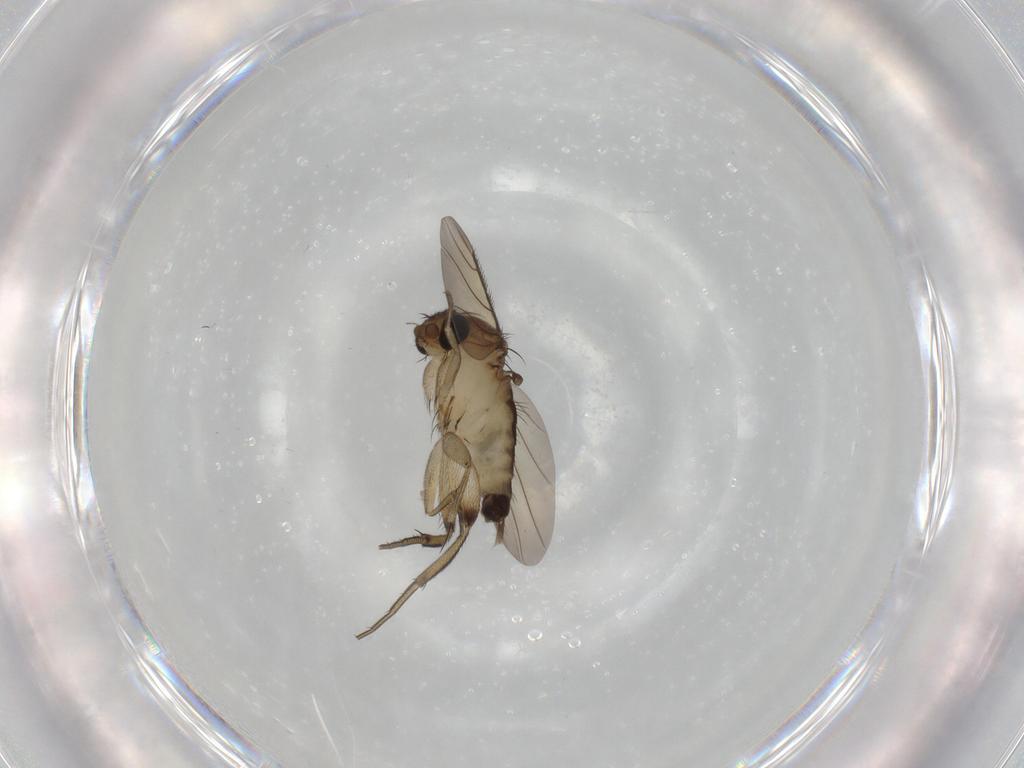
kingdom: Animalia
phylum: Arthropoda
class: Insecta
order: Diptera
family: Phoridae
